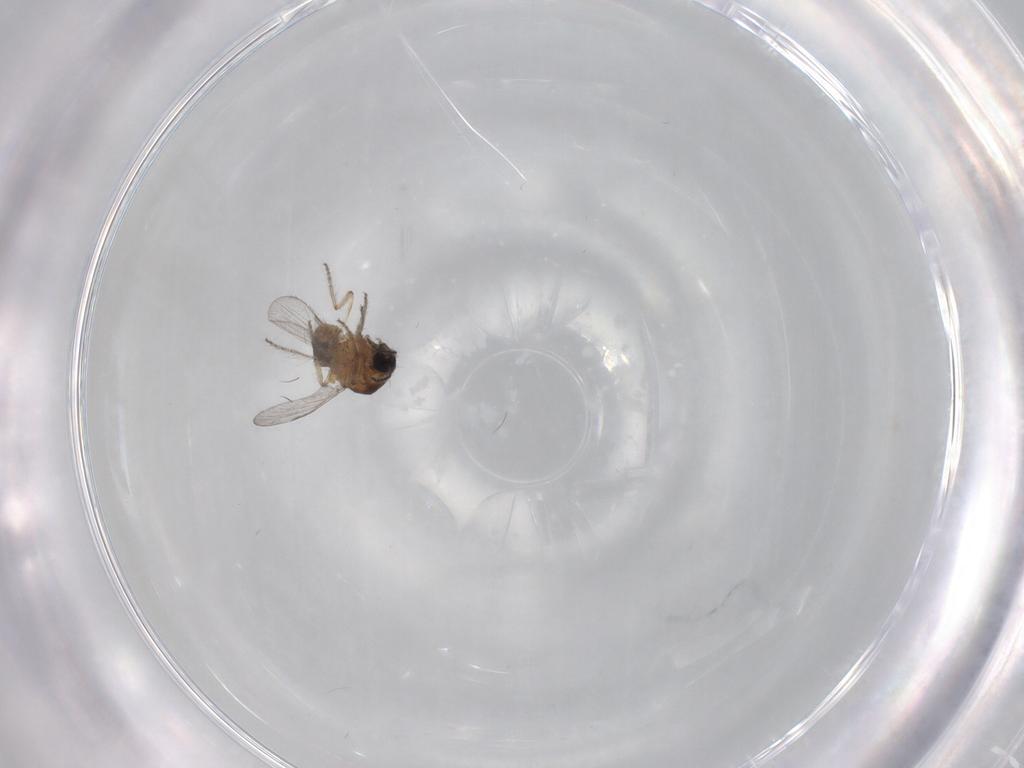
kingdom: Animalia
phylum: Arthropoda
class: Insecta
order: Diptera
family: Ceratopogonidae
